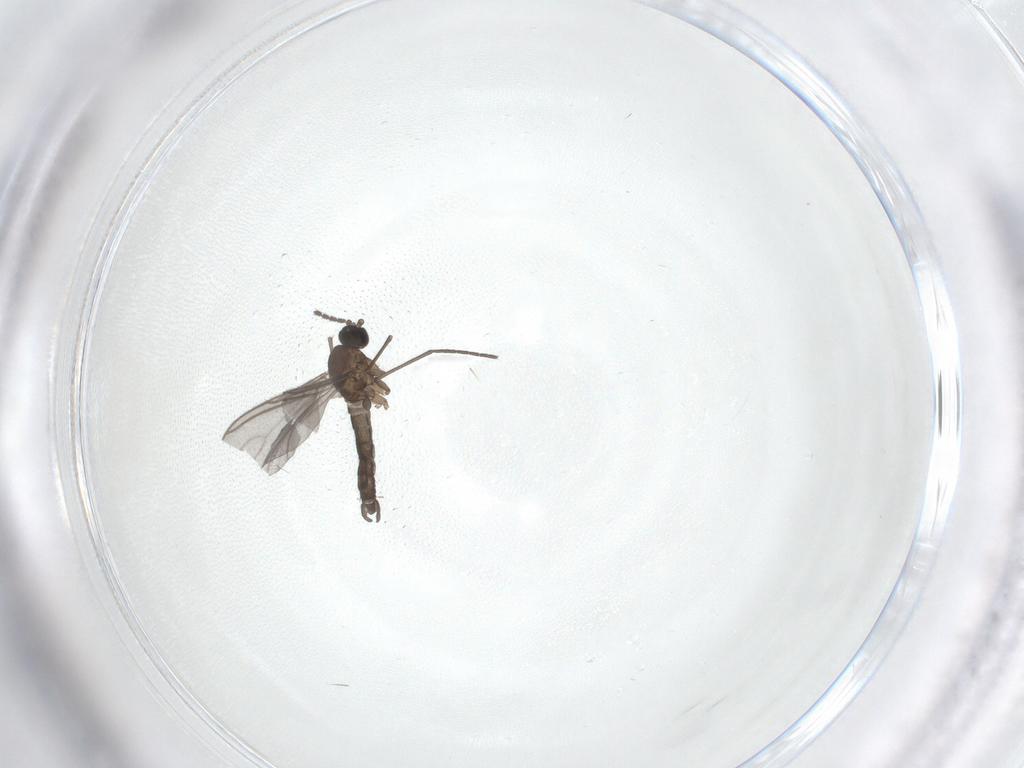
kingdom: Animalia
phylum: Arthropoda
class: Insecta
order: Diptera
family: Sciaridae
